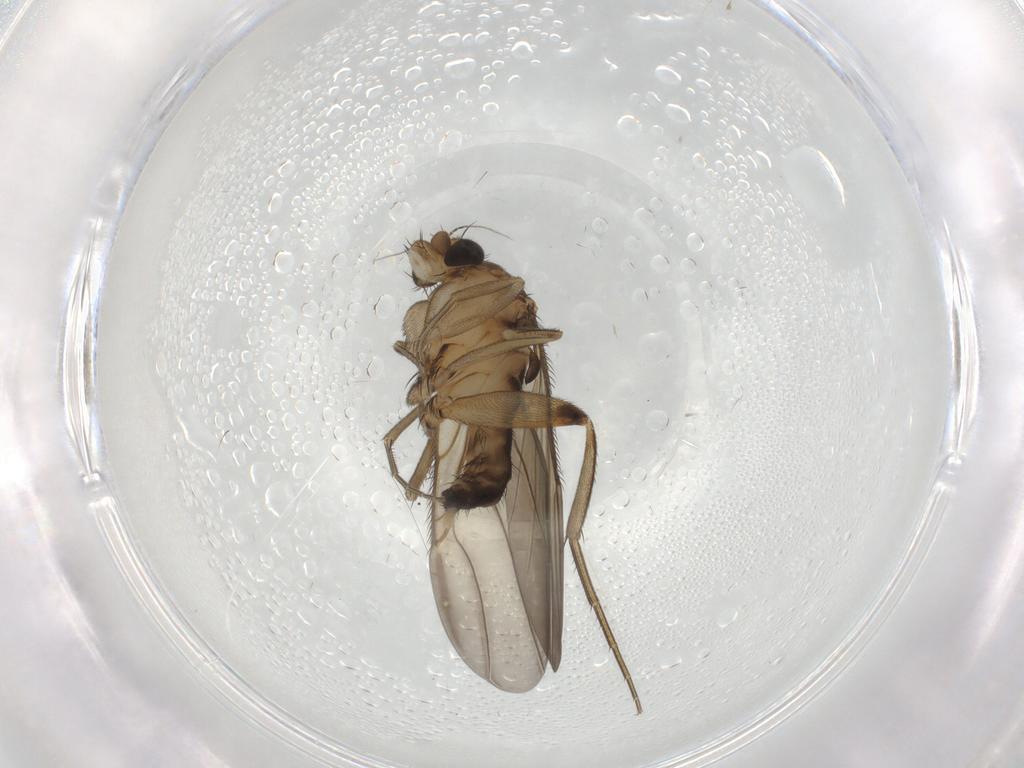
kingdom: Animalia
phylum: Arthropoda
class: Insecta
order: Diptera
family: Phoridae
